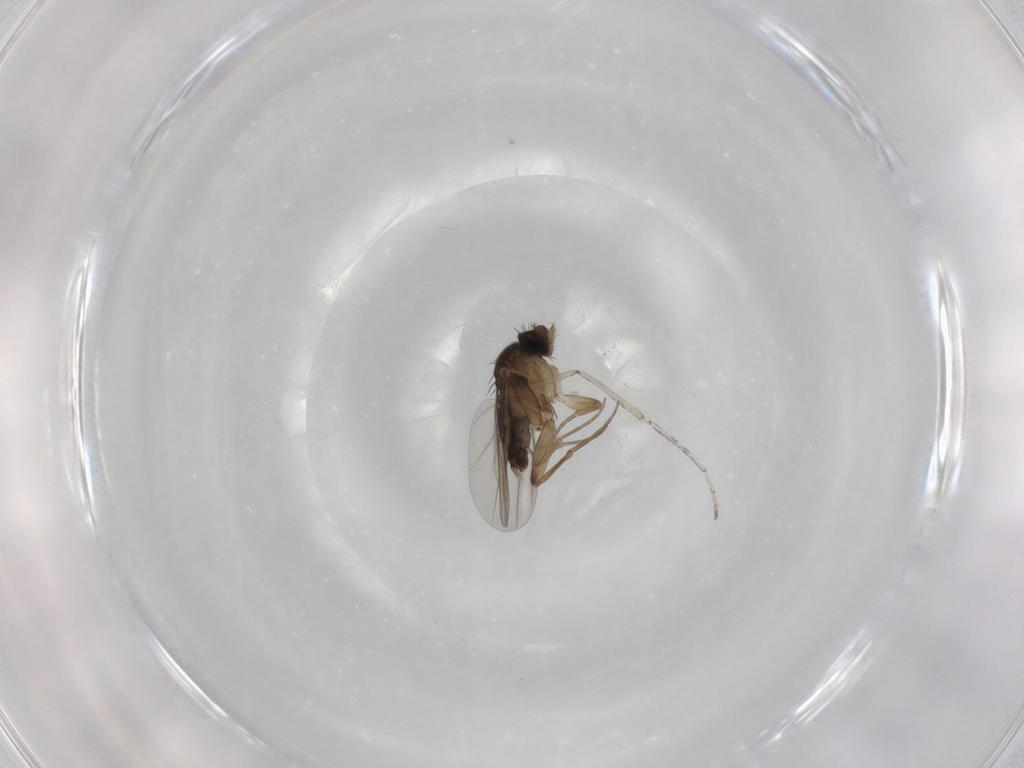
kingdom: Animalia
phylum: Arthropoda
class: Insecta
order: Diptera
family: Phoridae
